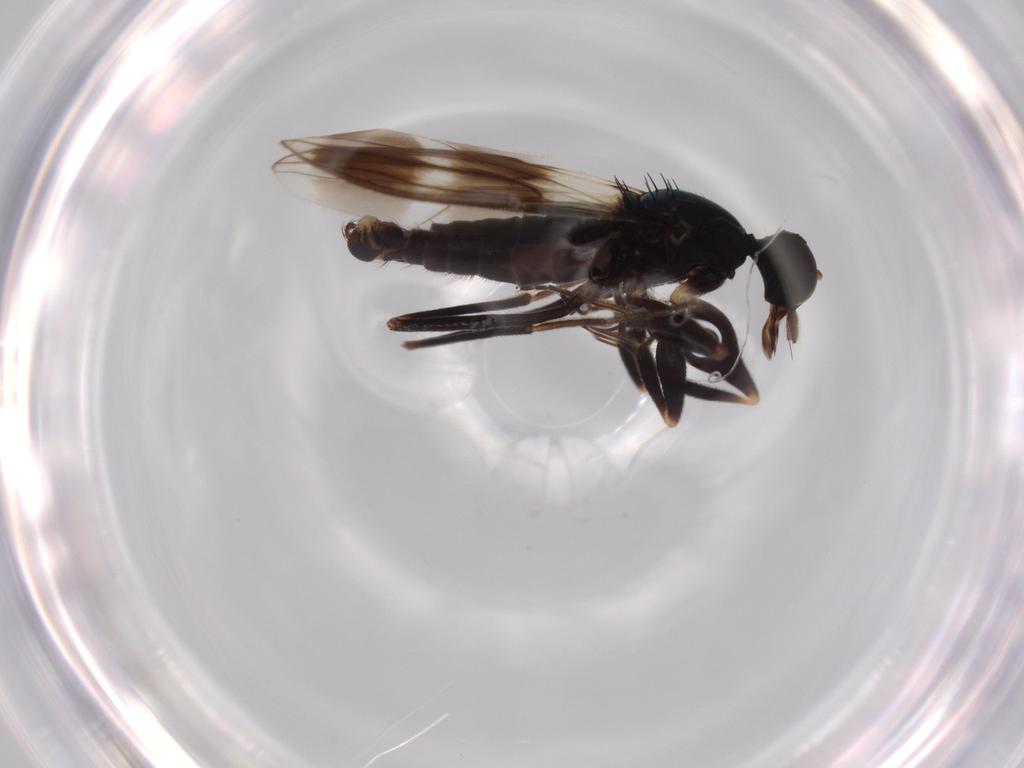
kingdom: Animalia
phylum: Arthropoda
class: Insecta
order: Diptera
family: Hybotidae
